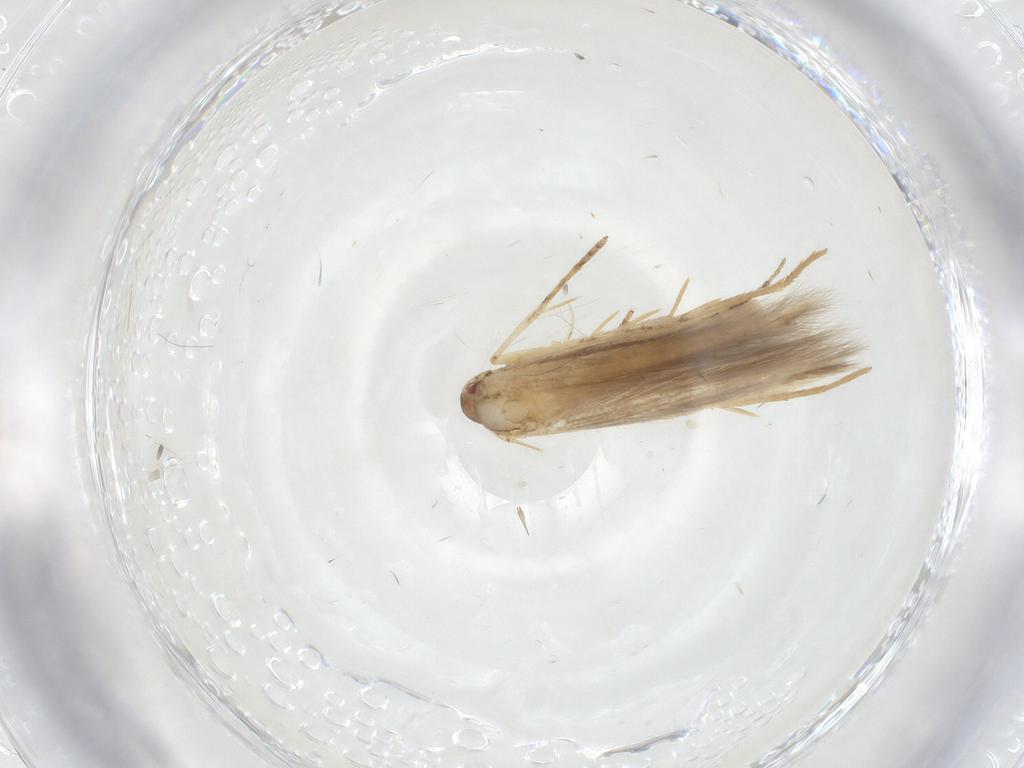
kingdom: Animalia
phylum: Arthropoda
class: Insecta
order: Lepidoptera
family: Cosmopterigidae
